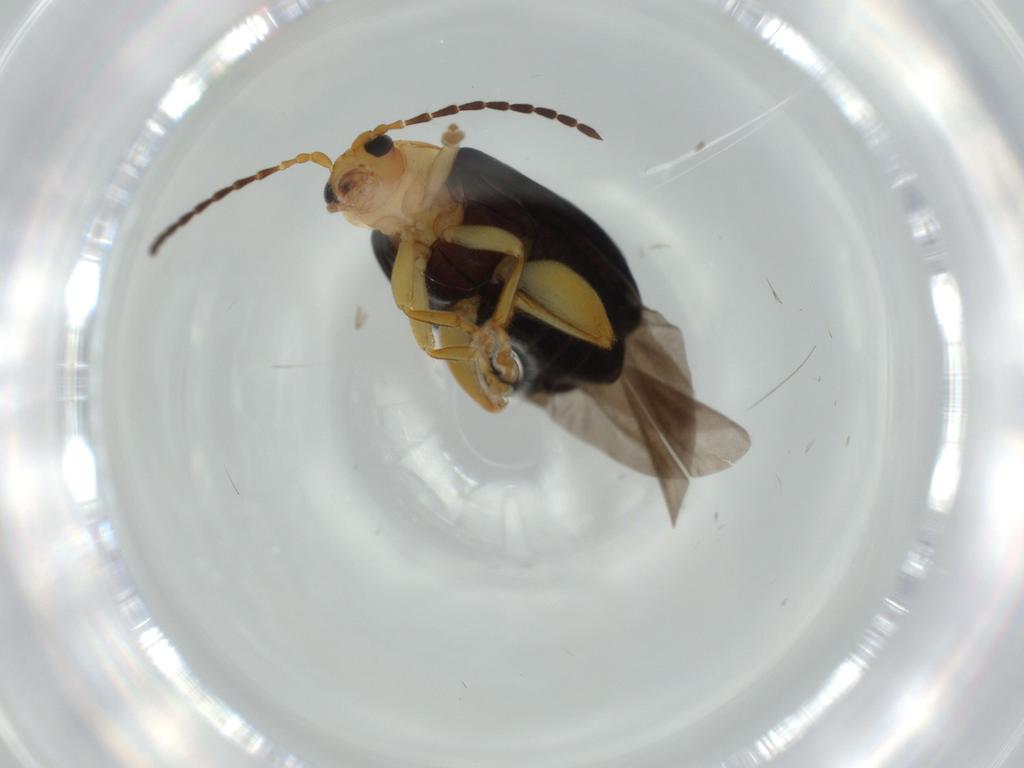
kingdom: Animalia
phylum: Arthropoda
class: Insecta
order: Coleoptera
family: Chrysomelidae
